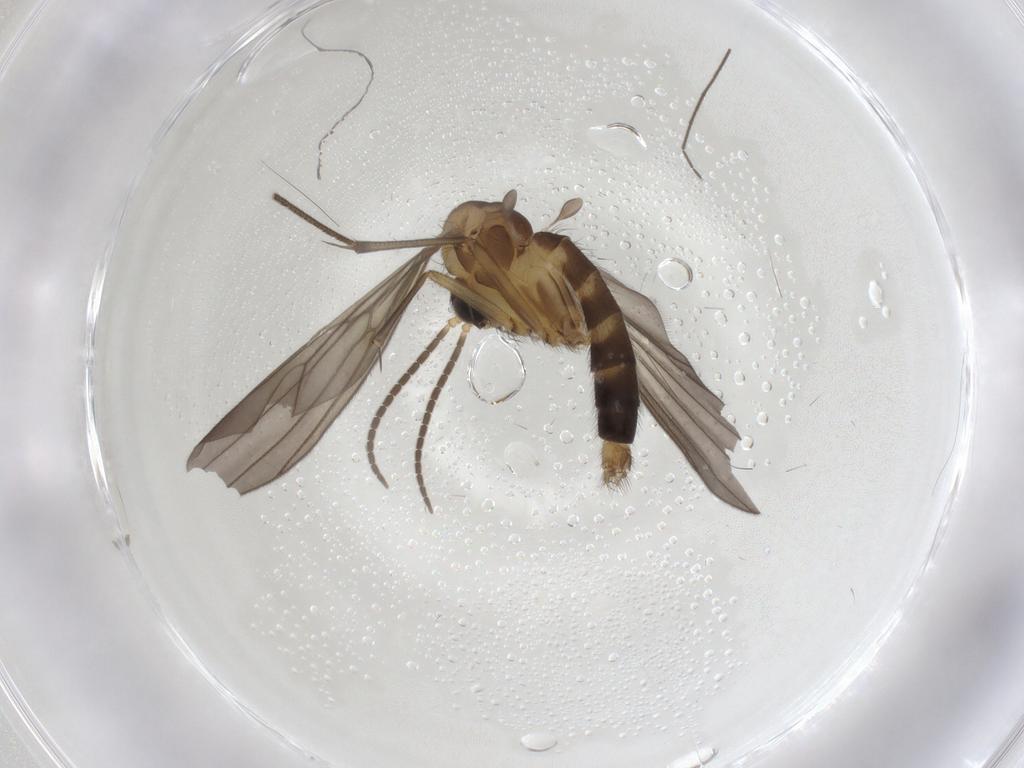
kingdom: Animalia
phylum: Arthropoda
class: Insecta
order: Diptera
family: Mycetophilidae
